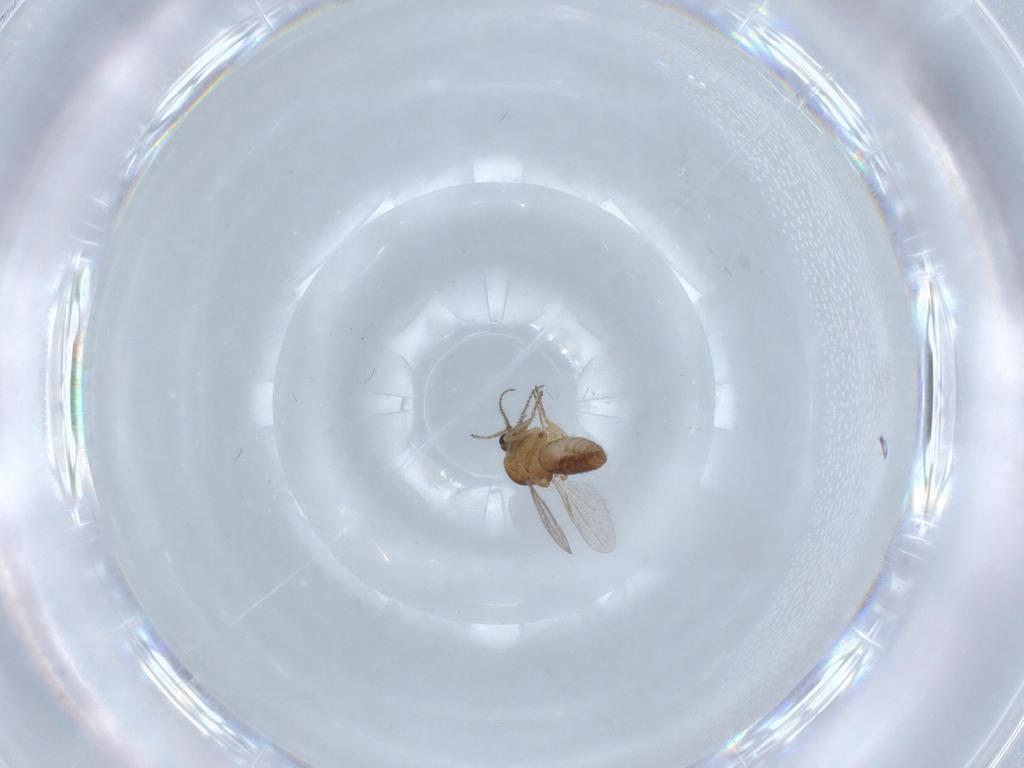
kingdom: Animalia
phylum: Arthropoda
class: Insecta
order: Diptera
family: Ceratopogonidae
